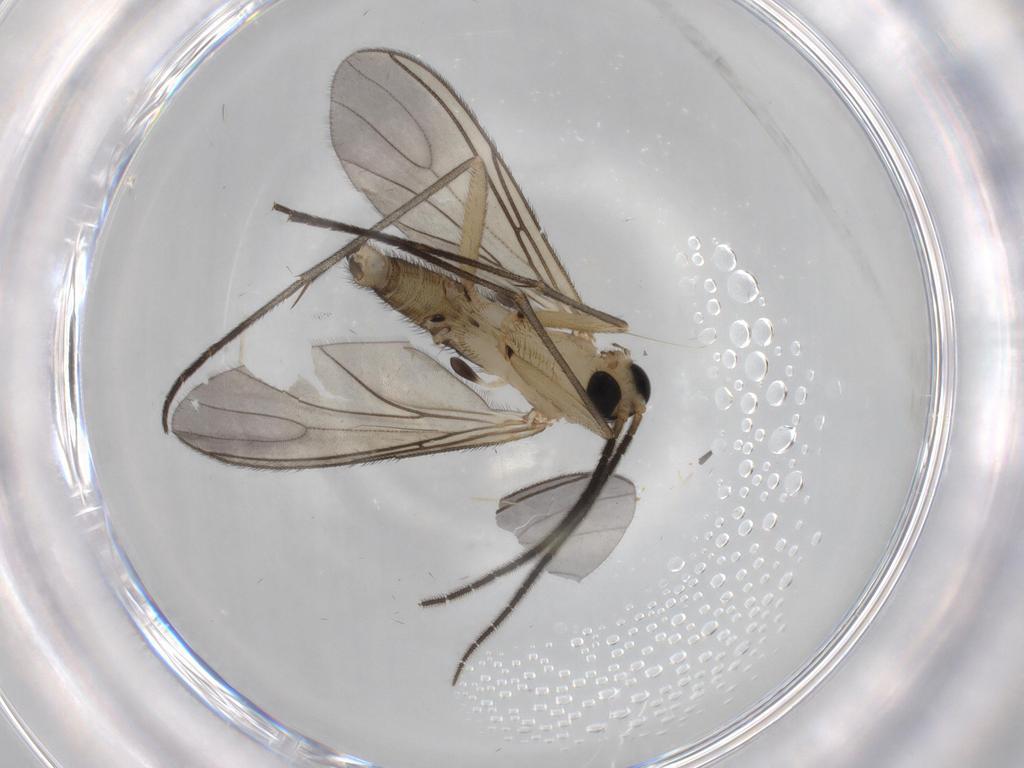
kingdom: Animalia
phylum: Arthropoda
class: Insecta
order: Diptera
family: Sciaridae
